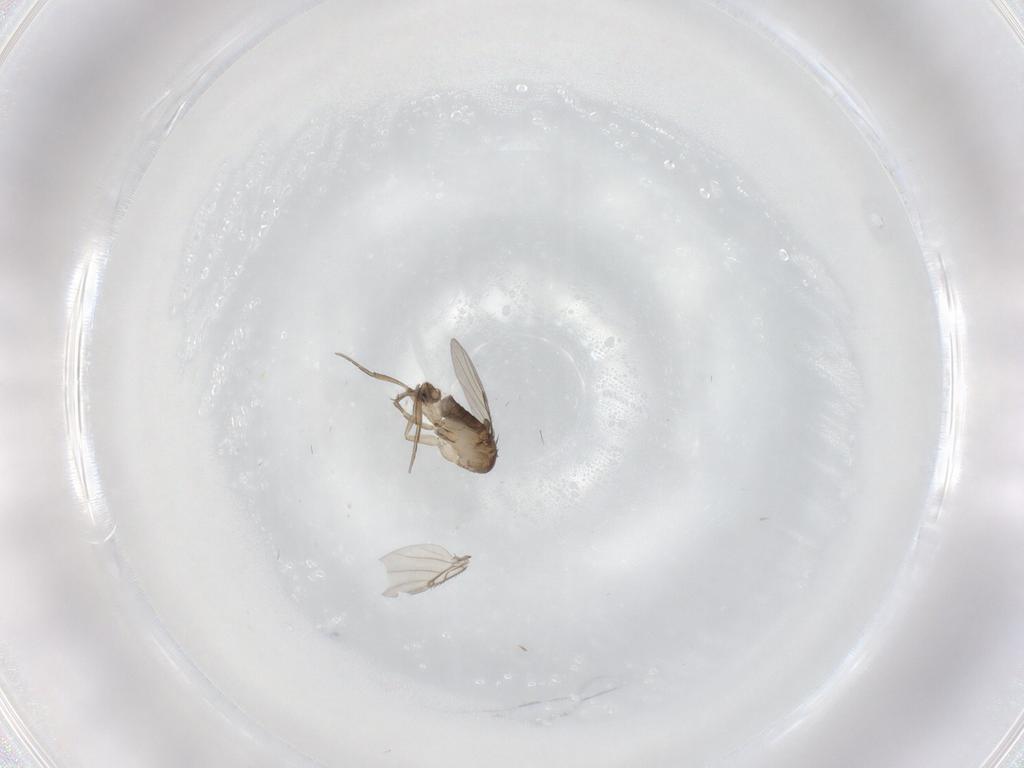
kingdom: Animalia
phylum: Arthropoda
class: Insecta
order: Diptera
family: Phoridae
